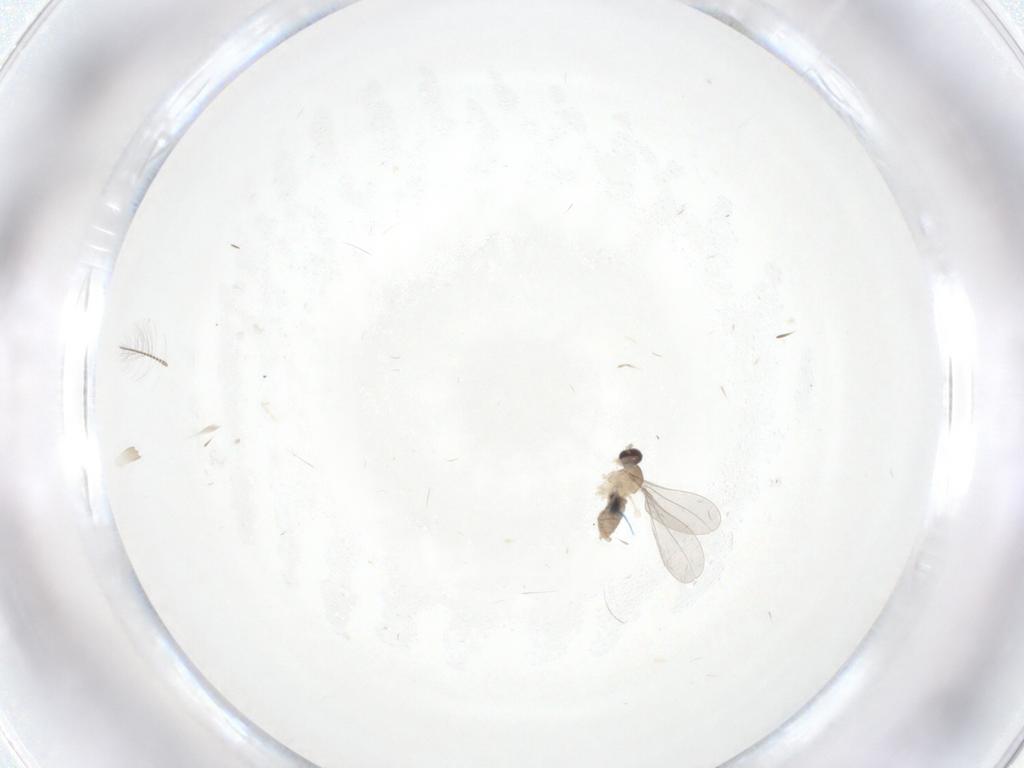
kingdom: Animalia
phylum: Arthropoda
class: Insecta
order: Diptera
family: Cecidomyiidae
